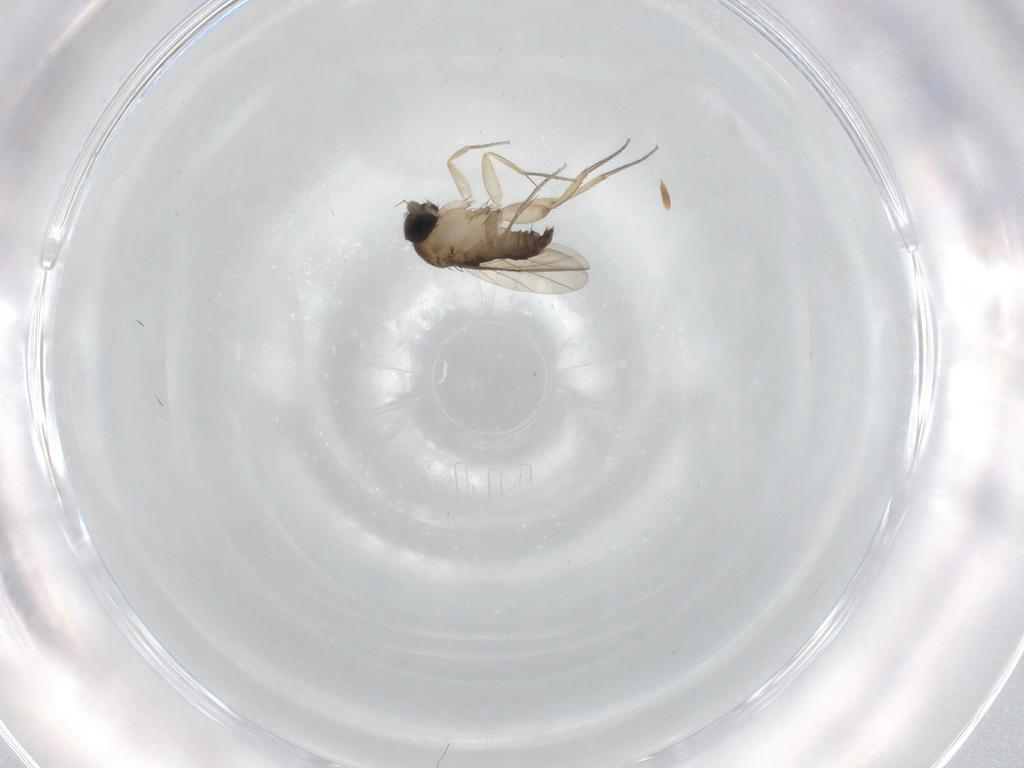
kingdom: Animalia
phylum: Arthropoda
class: Insecta
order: Diptera
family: Phoridae
